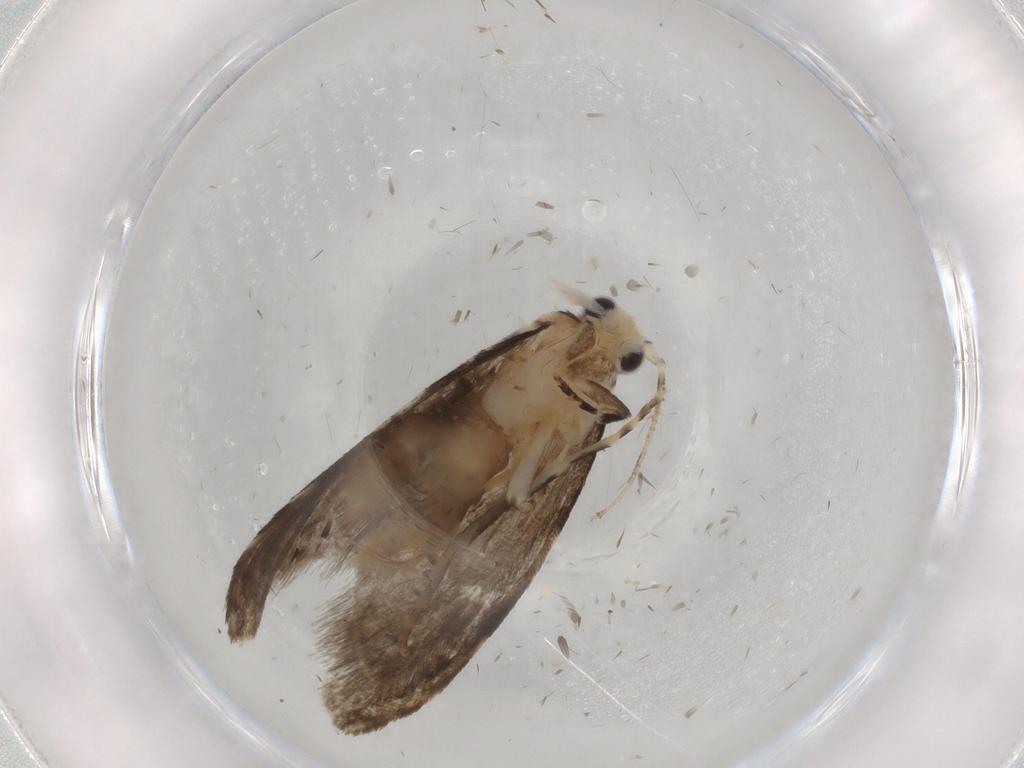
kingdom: Animalia
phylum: Arthropoda
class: Insecta
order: Lepidoptera
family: Tineidae
